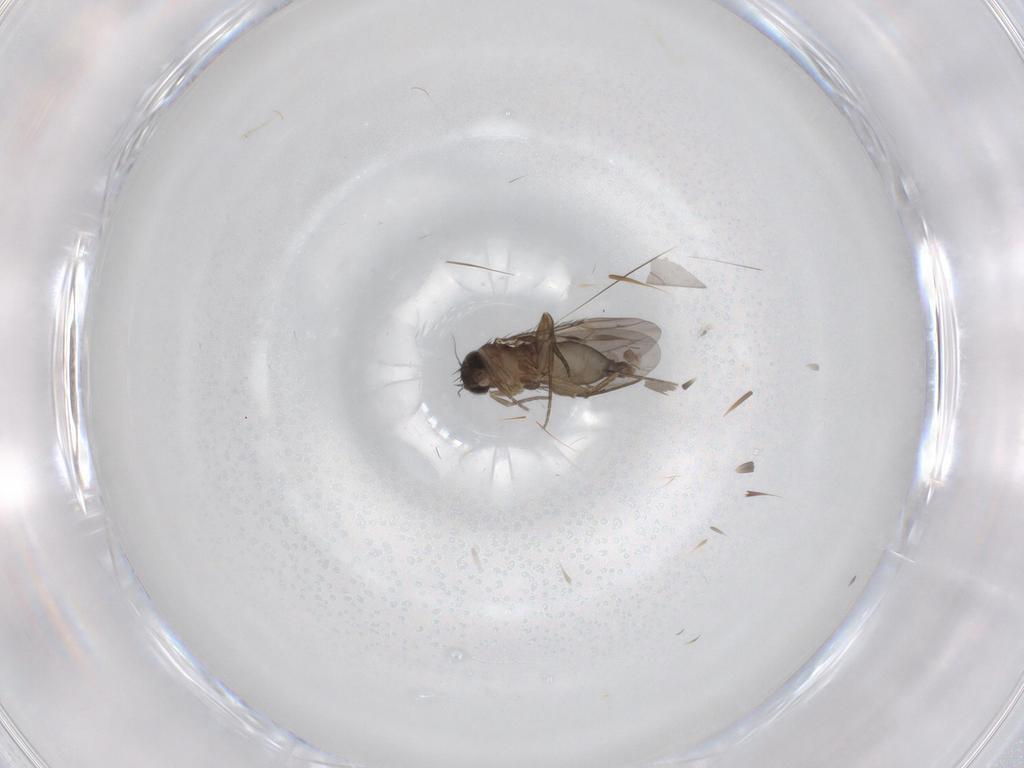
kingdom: Animalia
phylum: Arthropoda
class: Insecta
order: Diptera
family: Phoridae
